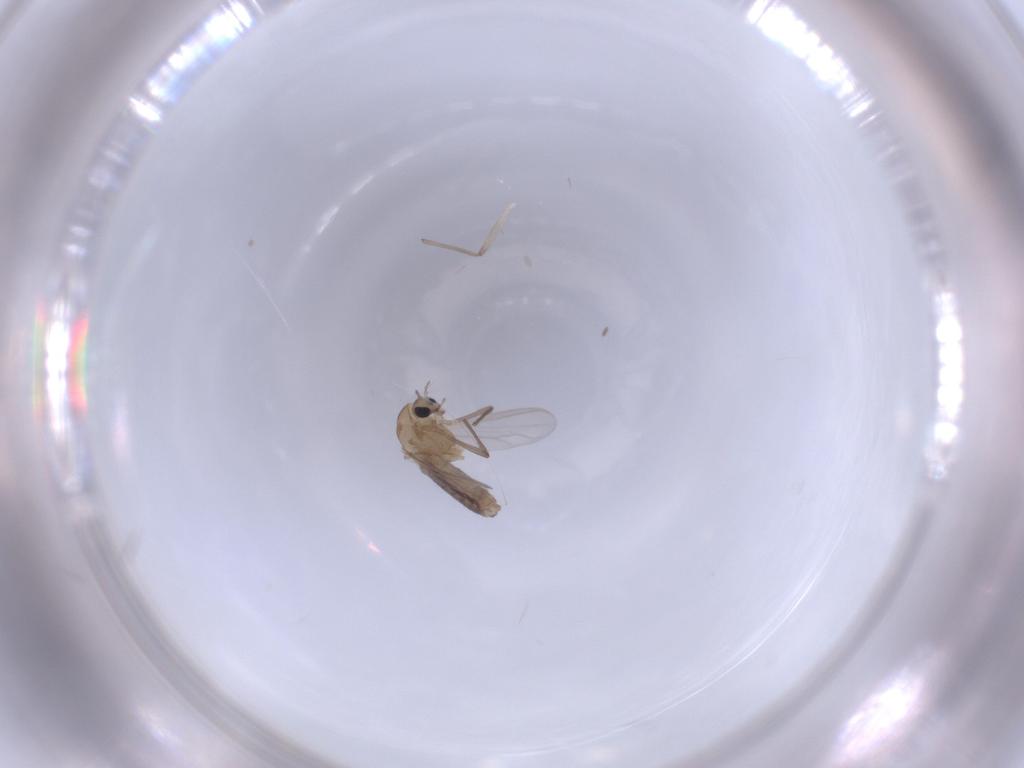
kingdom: Animalia
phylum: Arthropoda
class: Insecta
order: Diptera
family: Chironomidae
